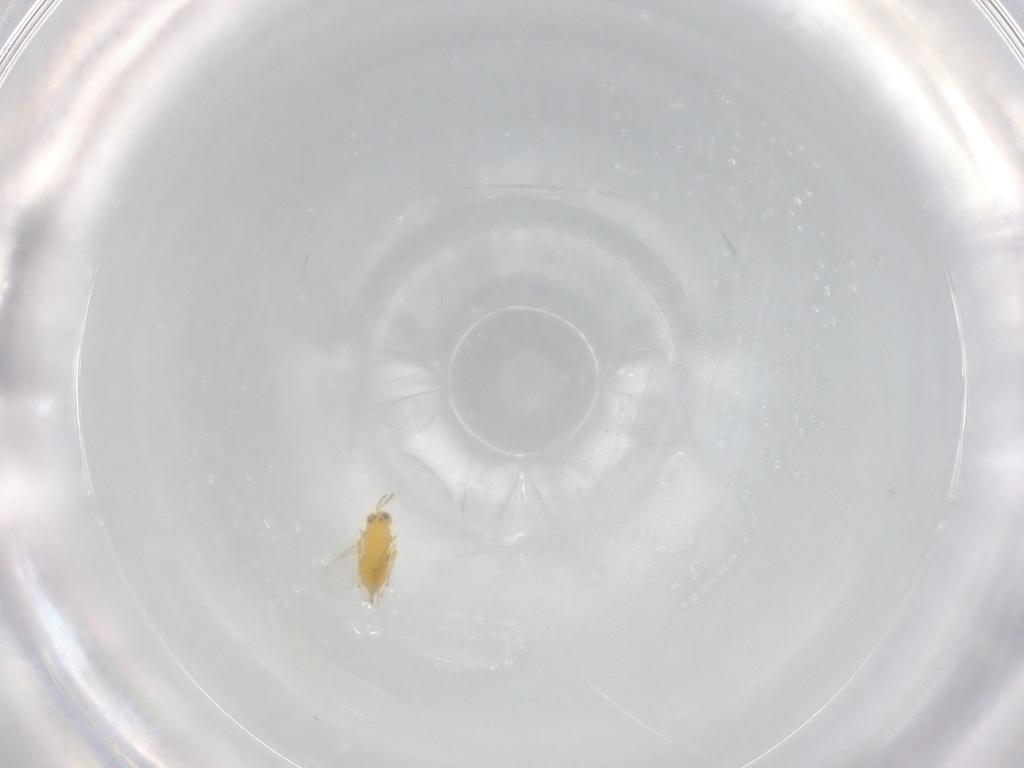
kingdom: Animalia
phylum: Arthropoda
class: Insecta
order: Hymenoptera
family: Aphelinidae
